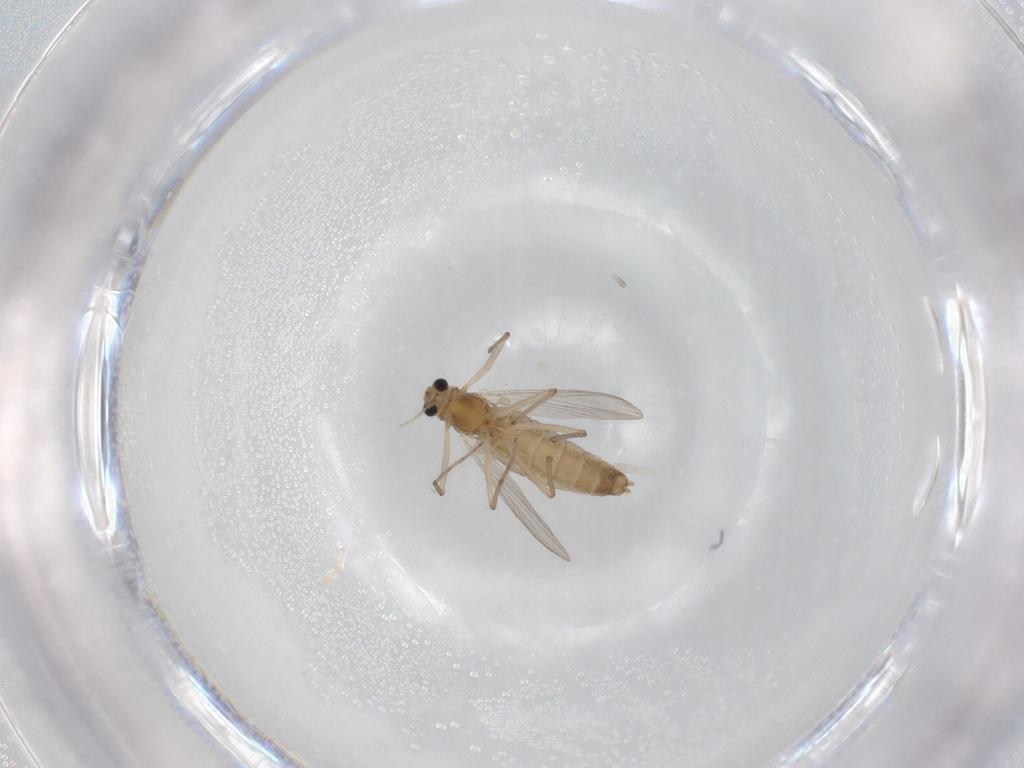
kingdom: Animalia
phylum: Arthropoda
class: Insecta
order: Diptera
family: Chironomidae
